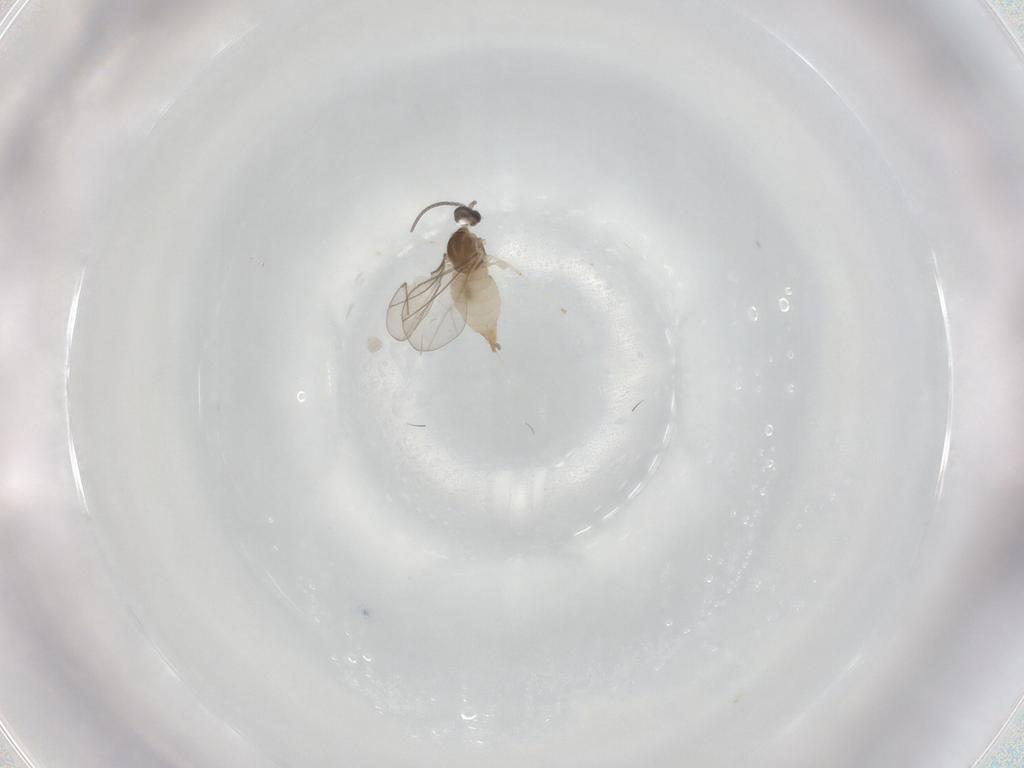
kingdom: Animalia
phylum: Arthropoda
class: Insecta
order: Diptera
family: Cecidomyiidae
